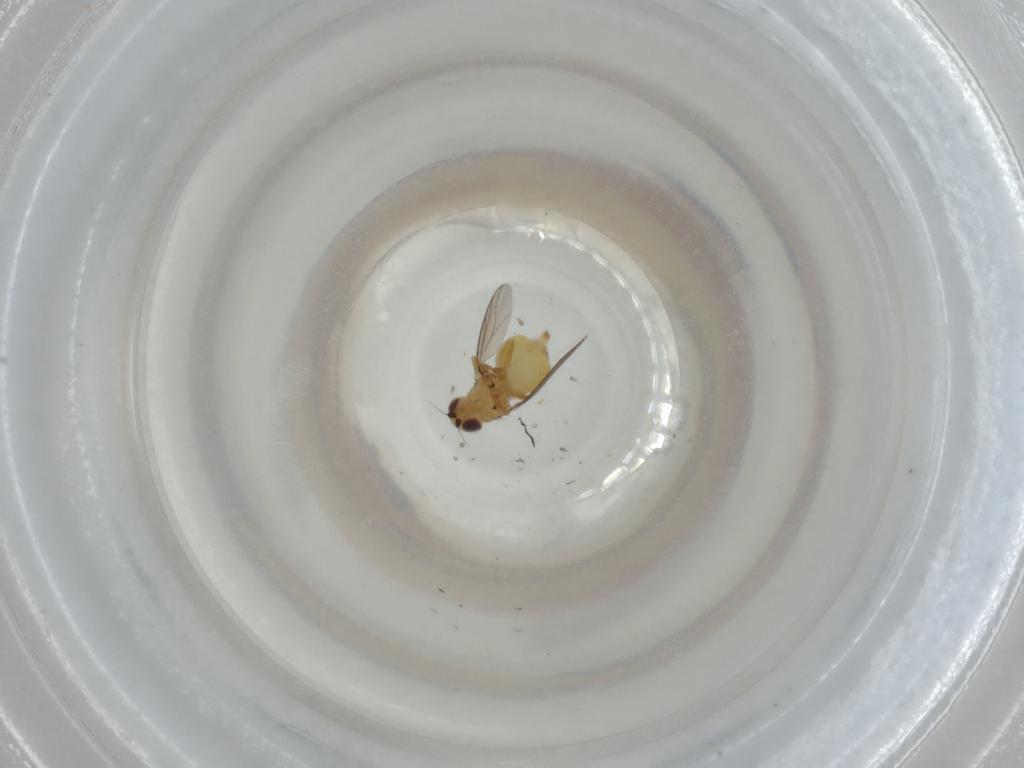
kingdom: Animalia
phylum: Arthropoda
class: Insecta
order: Diptera
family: Chloropidae
